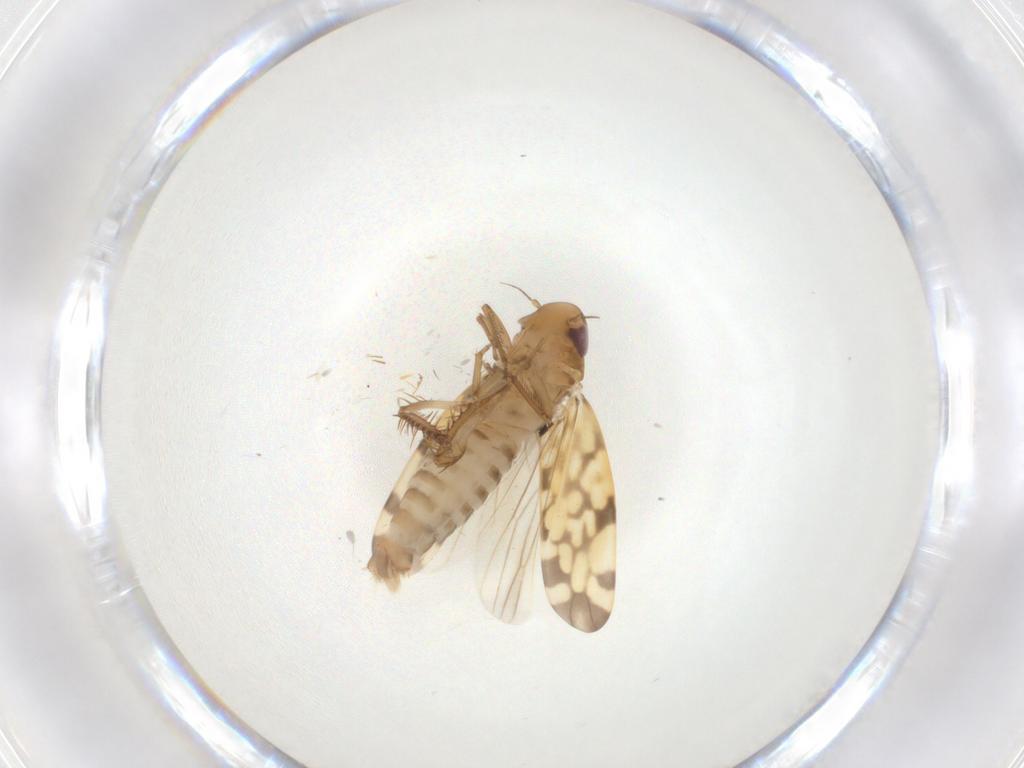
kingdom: Animalia
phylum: Arthropoda
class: Insecta
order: Hemiptera
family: Cicadellidae
